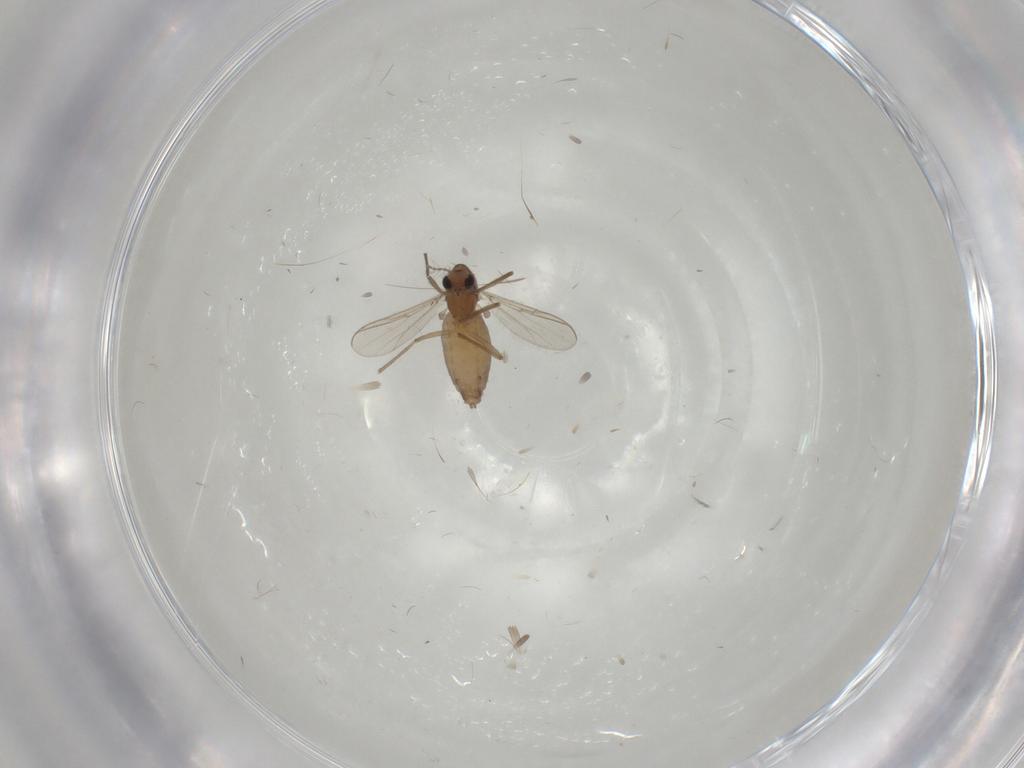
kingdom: Animalia
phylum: Arthropoda
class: Insecta
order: Diptera
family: Chironomidae
